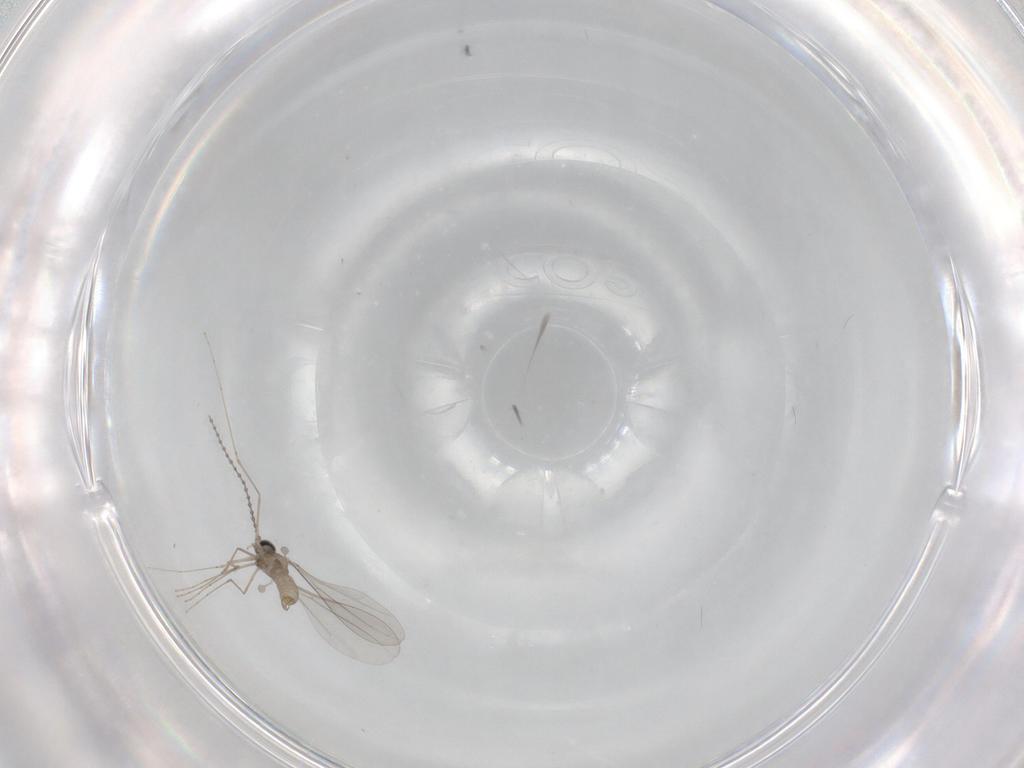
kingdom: Animalia
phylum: Arthropoda
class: Insecta
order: Diptera
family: Cecidomyiidae
